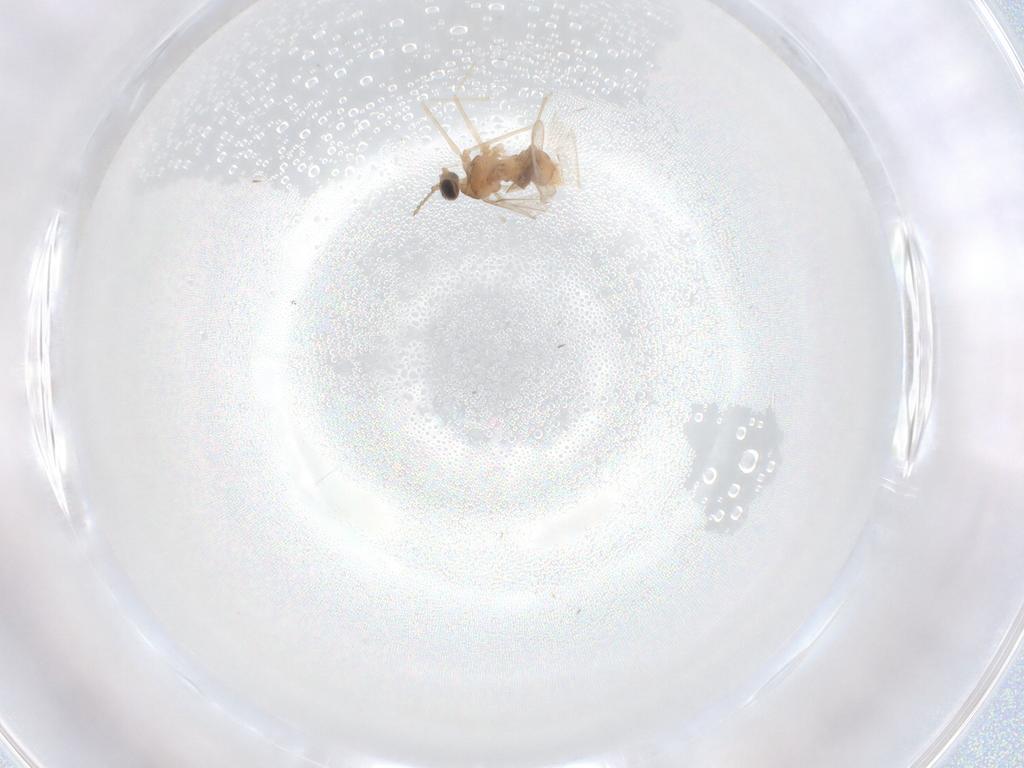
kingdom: Animalia
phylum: Arthropoda
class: Insecta
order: Diptera
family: Cecidomyiidae
